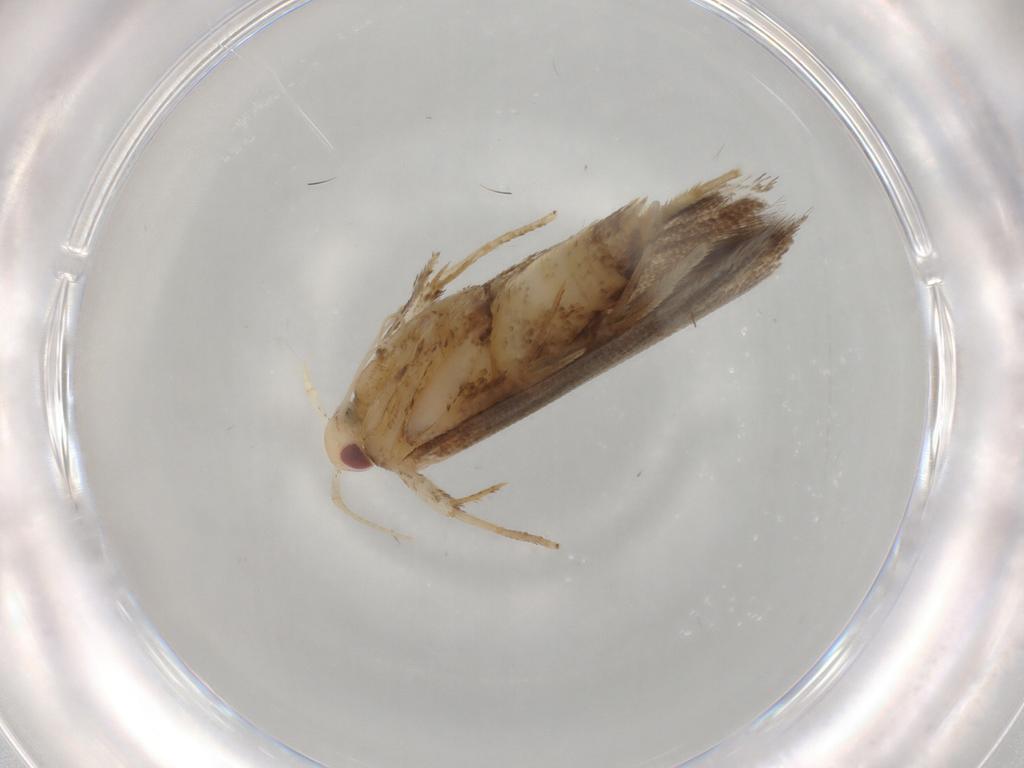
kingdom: Animalia
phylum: Arthropoda
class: Insecta
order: Lepidoptera
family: Cosmopterigidae
